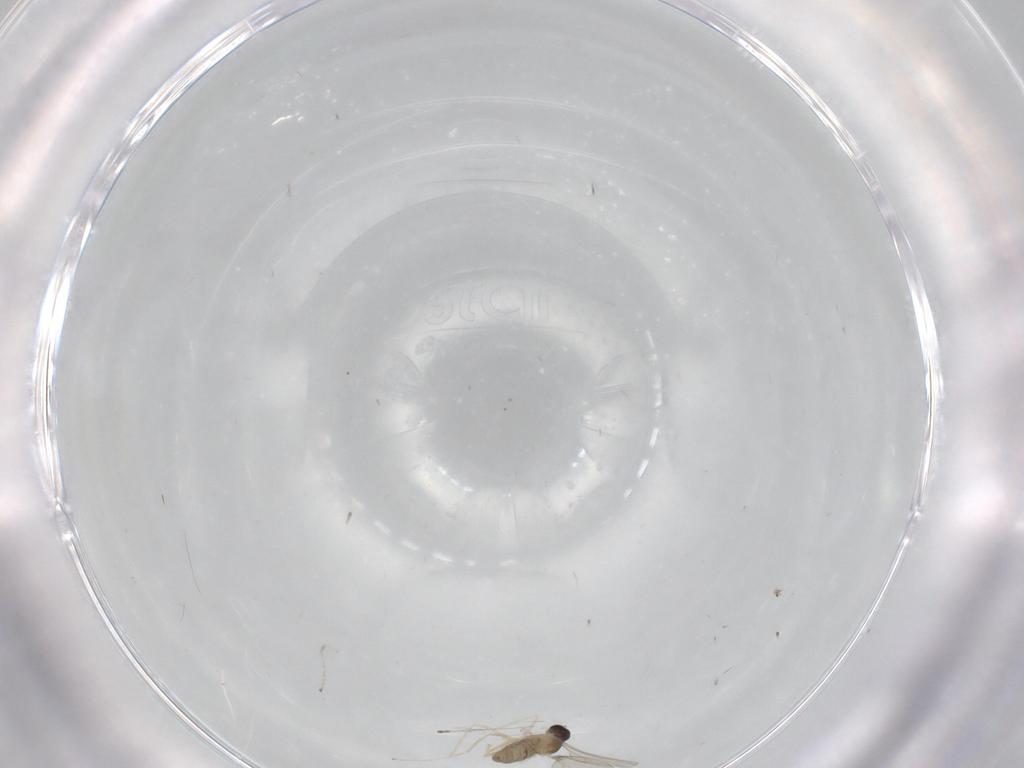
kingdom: Animalia
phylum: Arthropoda
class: Insecta
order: Diptera
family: Cecidomyiidae
